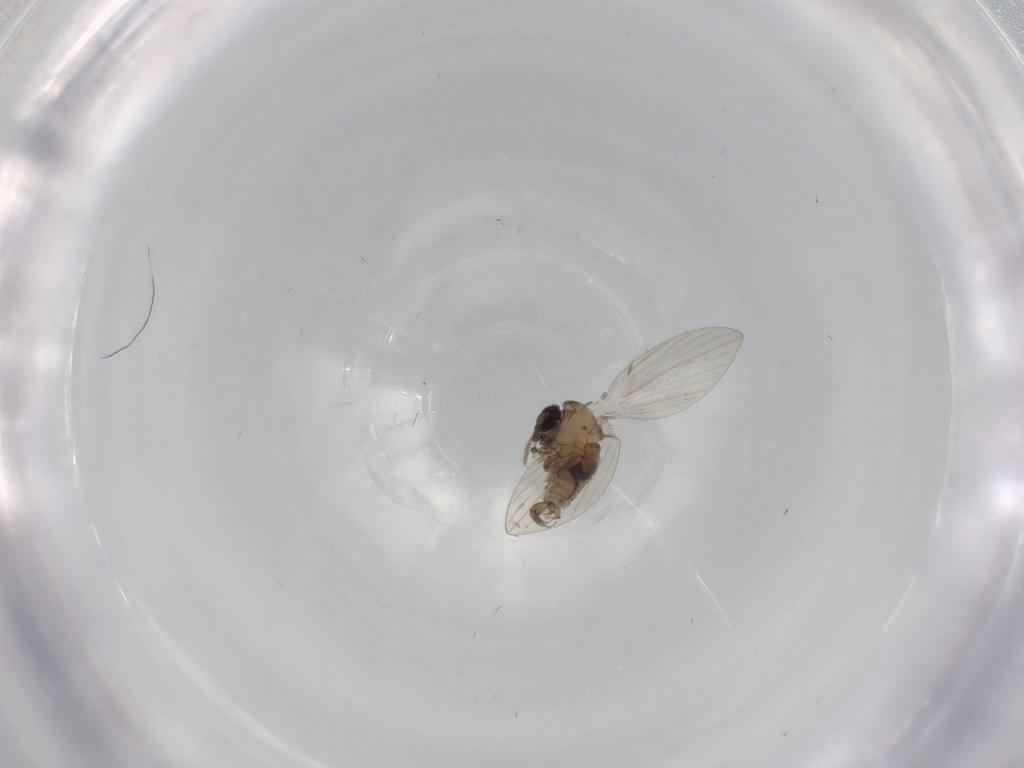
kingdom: Animalia
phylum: Arthropoda
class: Insecta
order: Diptera
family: Psychodidae
